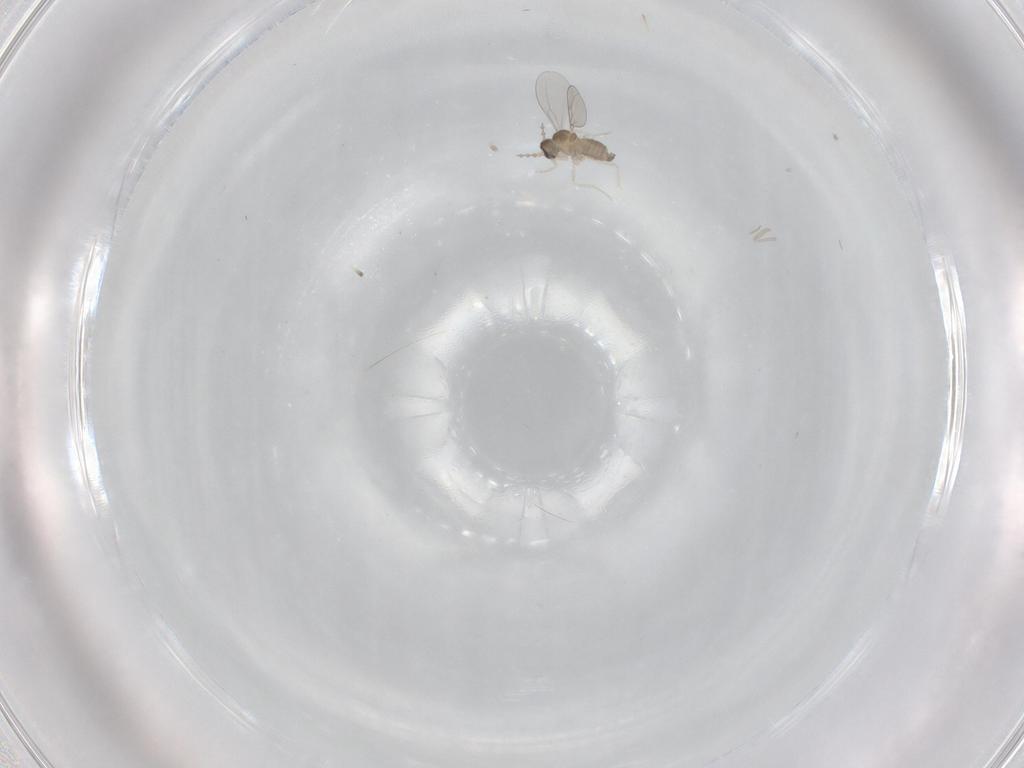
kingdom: Animalia
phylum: Arthropoda
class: Insecta
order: Diptera
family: Cecidomyiidae
